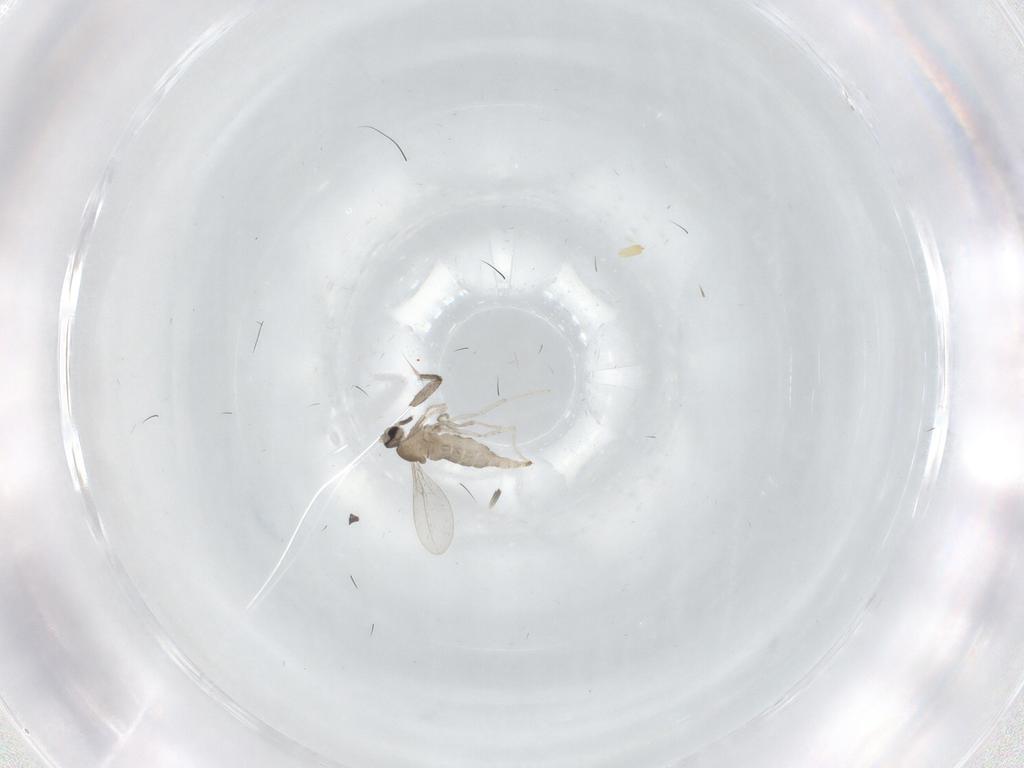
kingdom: Animalia
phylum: Arthropoda
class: Insecta
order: Diptera
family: Cecidomyiidae
